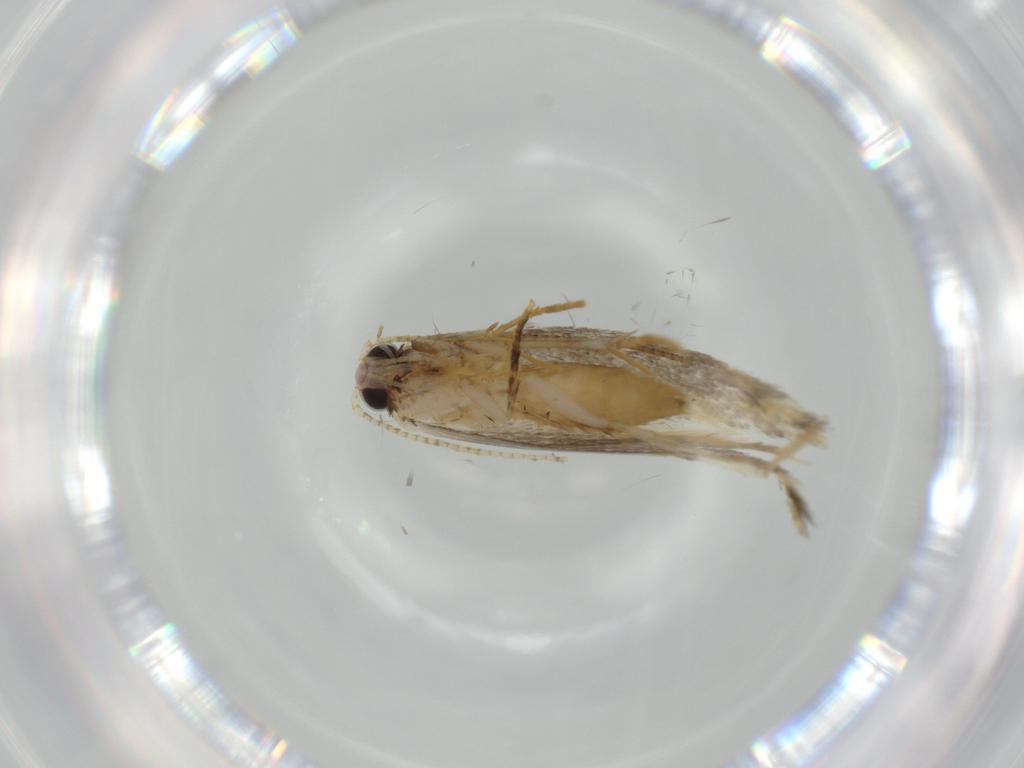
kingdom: Animalia
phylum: Arthropoda
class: Insecta
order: Lepidoptera
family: Tineidae
